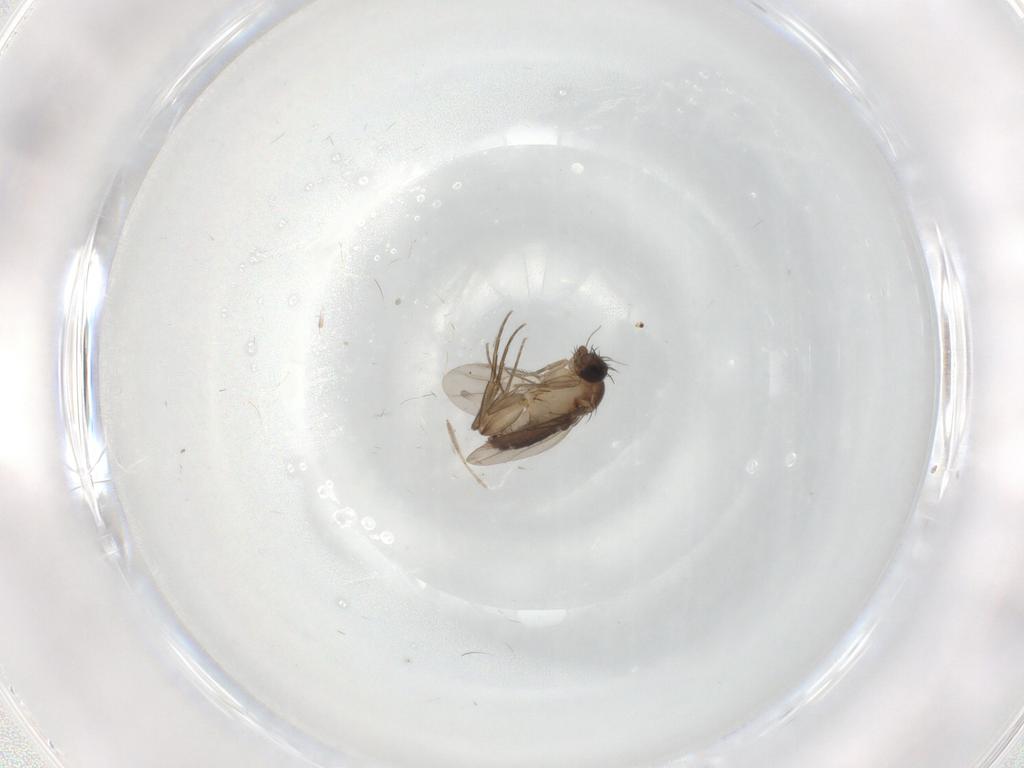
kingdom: Animalia
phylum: Arthropoda
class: Insecta
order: Diptera
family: Phoridae
